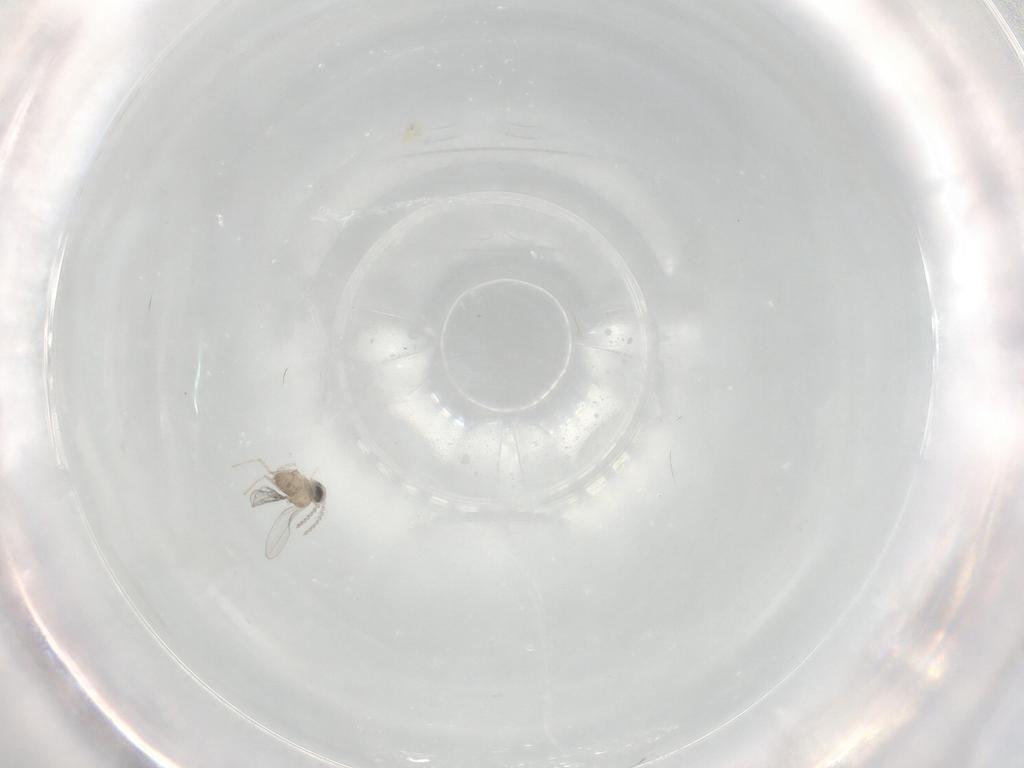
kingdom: Animalia
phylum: Arthropoda
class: Insecta
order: Diptera
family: Cecidomyiidae
